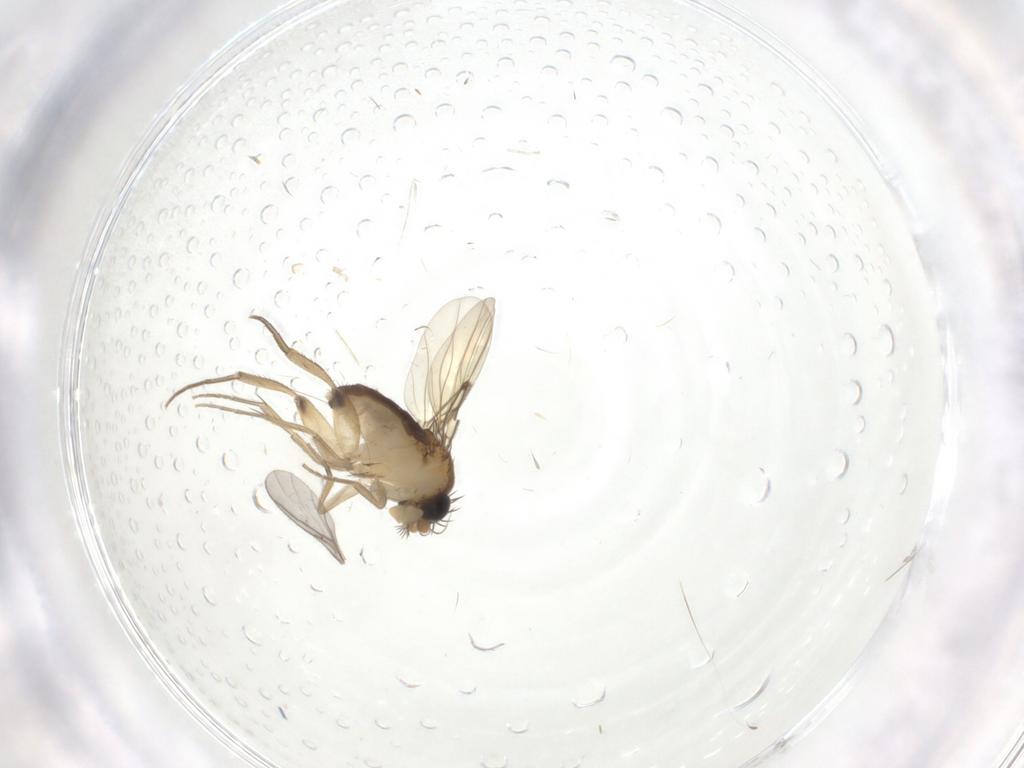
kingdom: Animalia
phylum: Arthropoda
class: Insecta
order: Diptera
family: Phoridae
